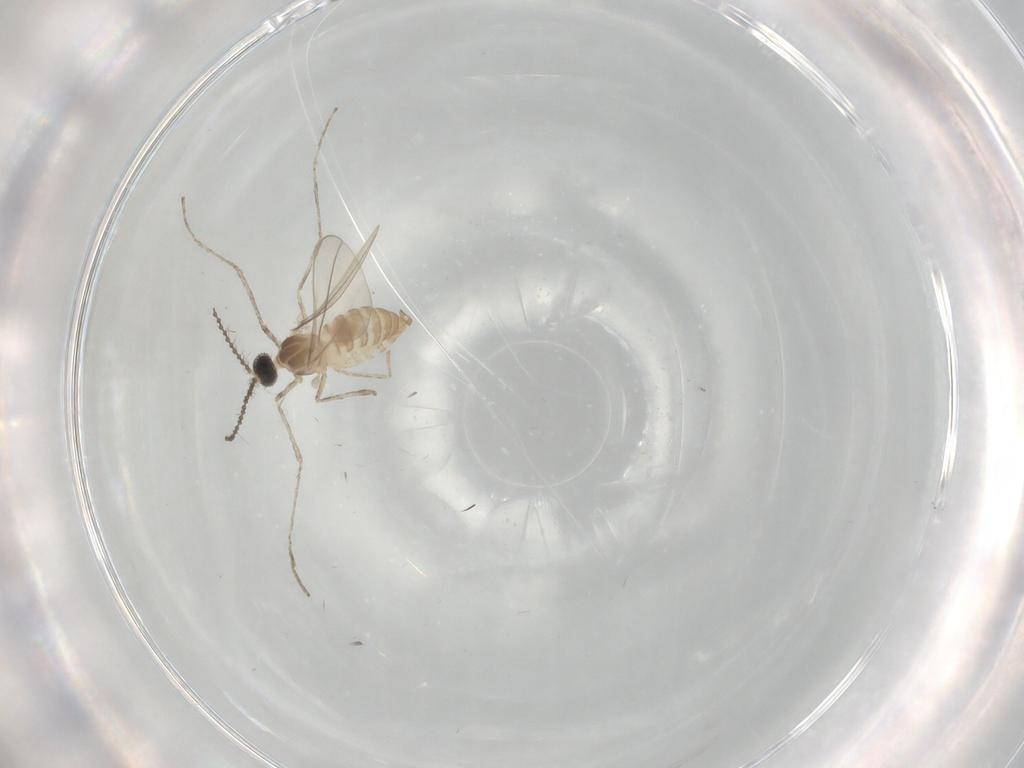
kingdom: Animalia
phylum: Arthropoda
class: Insecta
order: Diptera
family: Cecidomyiidae
